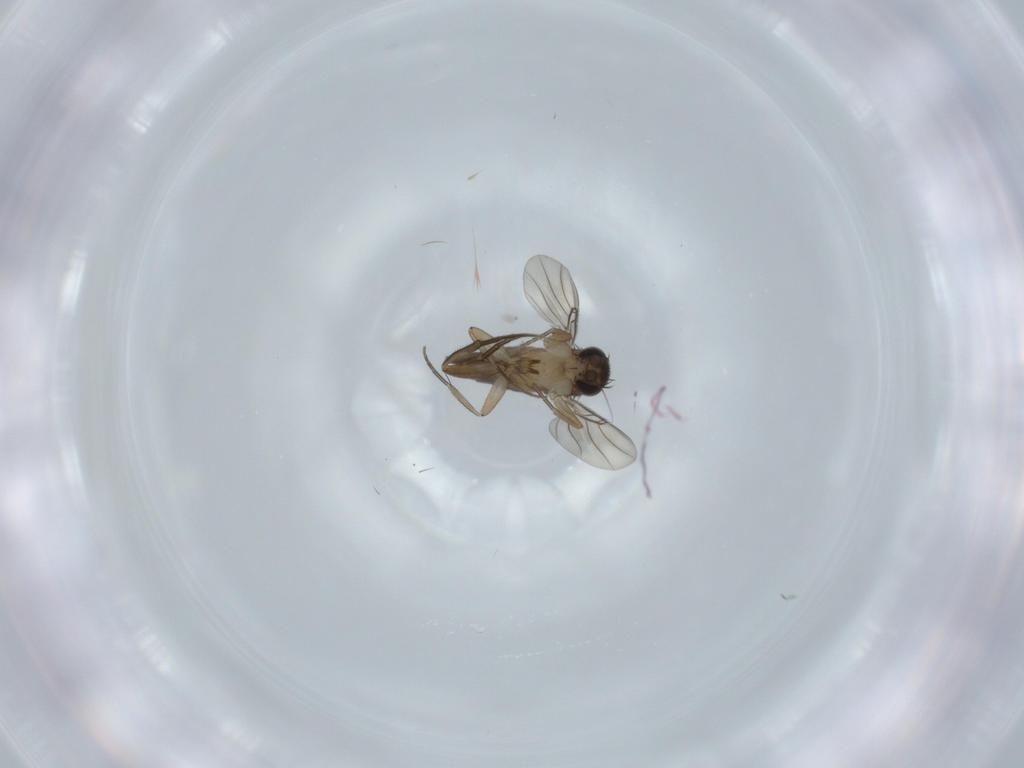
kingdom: Animalia
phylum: Arthropoda
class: Insecta
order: Diptera
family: Phoridae
